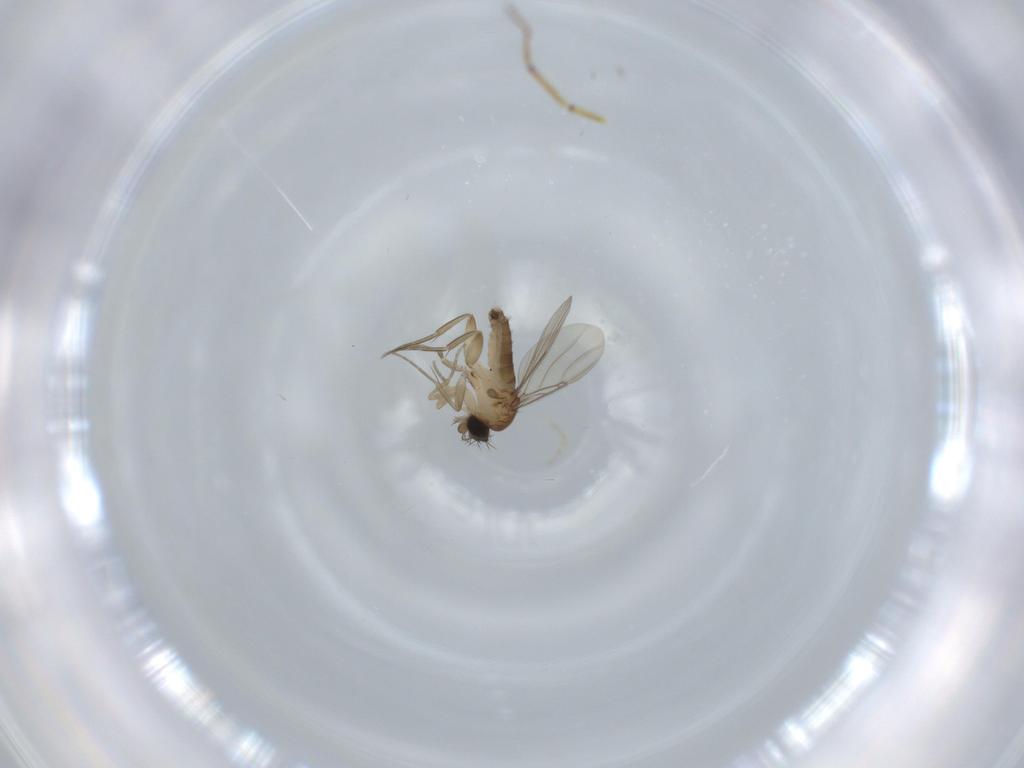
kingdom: Animalia
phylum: Arthropoda
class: Insecta
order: Diptera
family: Phoridae
